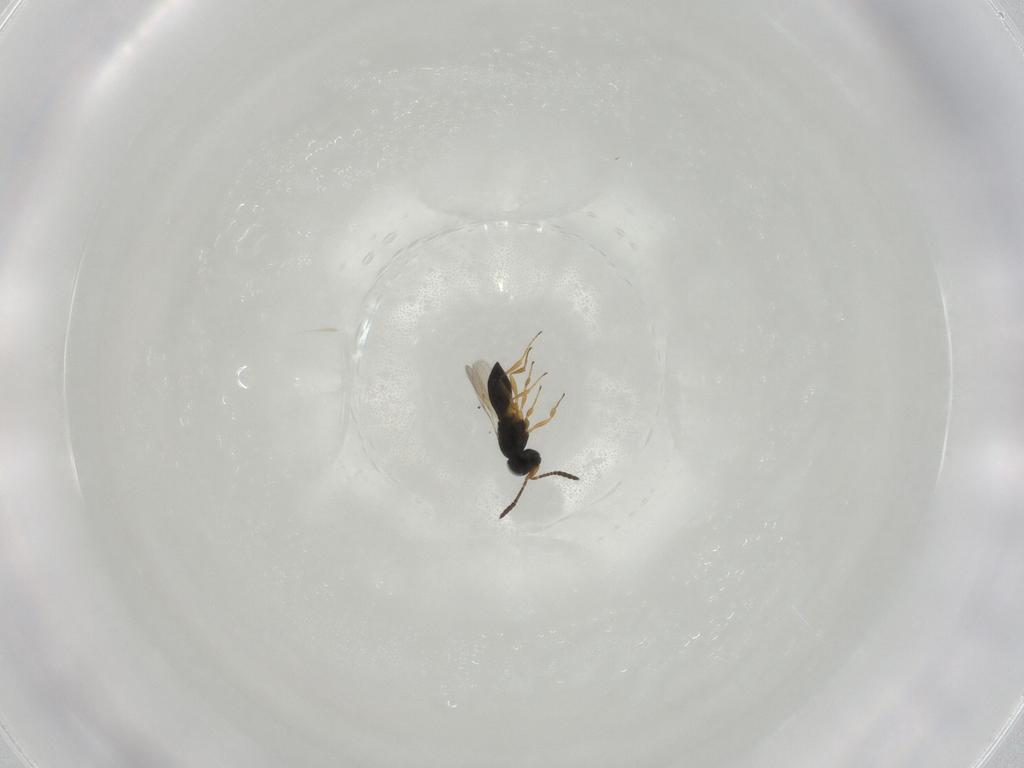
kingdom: Animalia
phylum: Arthropoda
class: Insecta
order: Hymenoptera
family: Scelionidae
